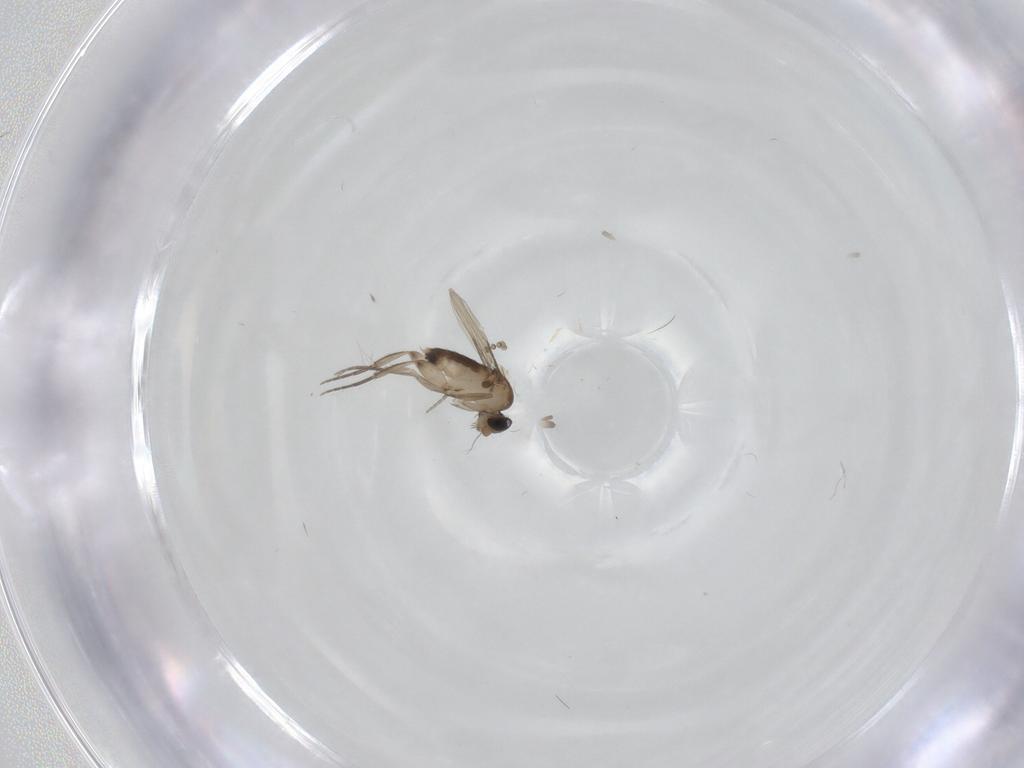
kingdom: Animalia
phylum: Arthropoda
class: Insecta
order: Diptera
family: Phoridae
